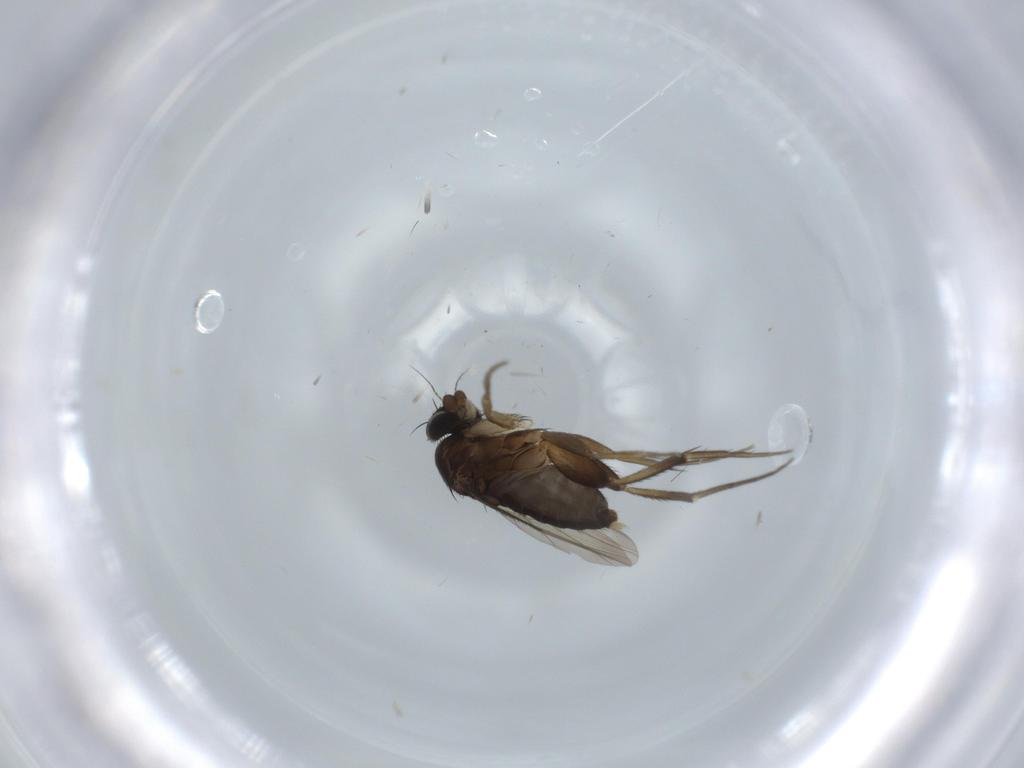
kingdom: Animalia
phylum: Arthropoda
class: Insecta
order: Diptera
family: Phoridae
